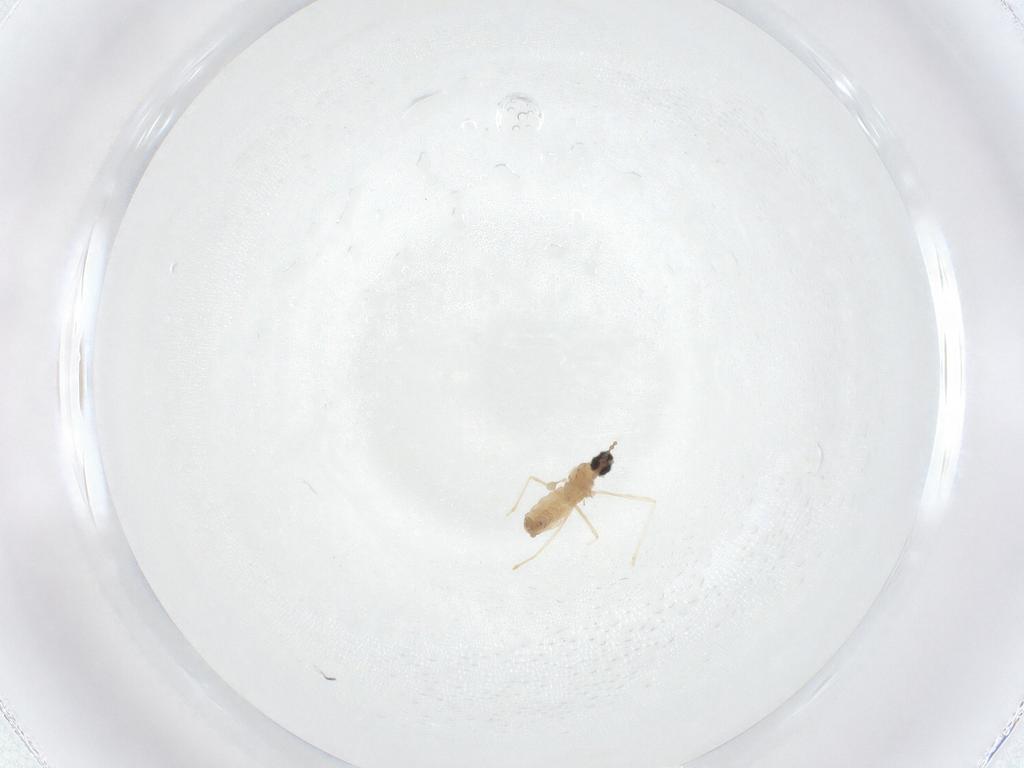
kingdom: Animalia
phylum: Arthropoda
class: Insecta
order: Diptera
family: Cecidomyiidae
